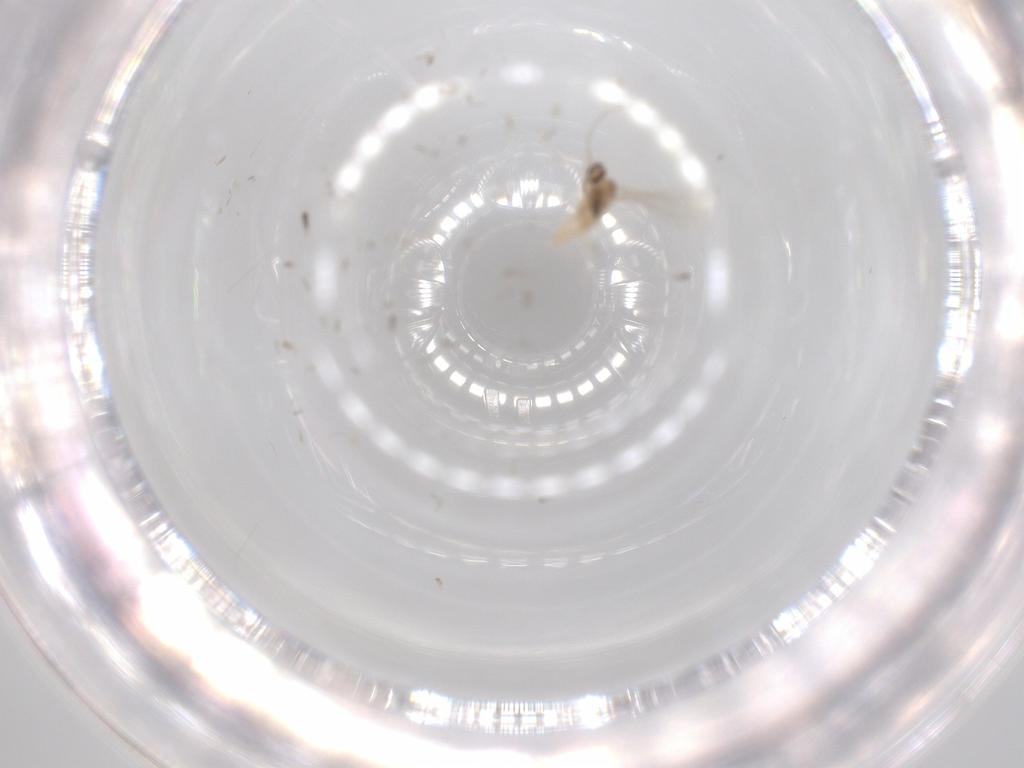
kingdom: Animalia
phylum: Arthropoda
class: Insecta
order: Diptera
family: Cecidomyiidae
